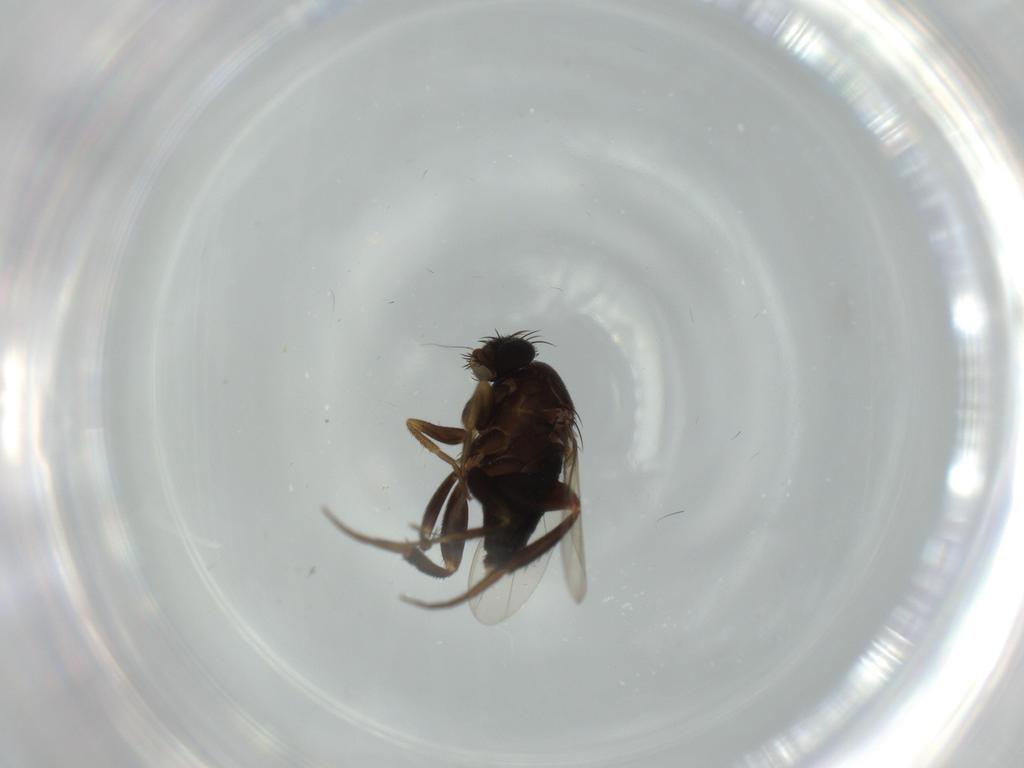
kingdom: Animalia
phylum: Arthropoda
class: Insecta
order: Diptera
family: Phoridae
